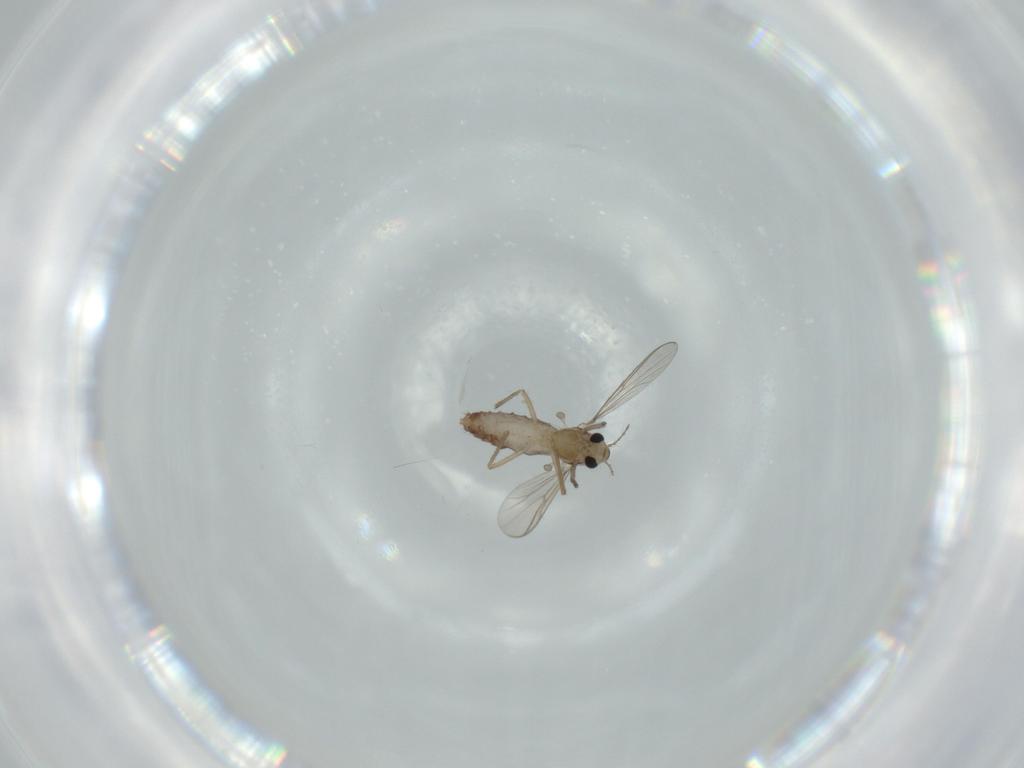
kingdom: Animalia
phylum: Arthropoda
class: Insecta
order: Diptera
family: Chironomidae
